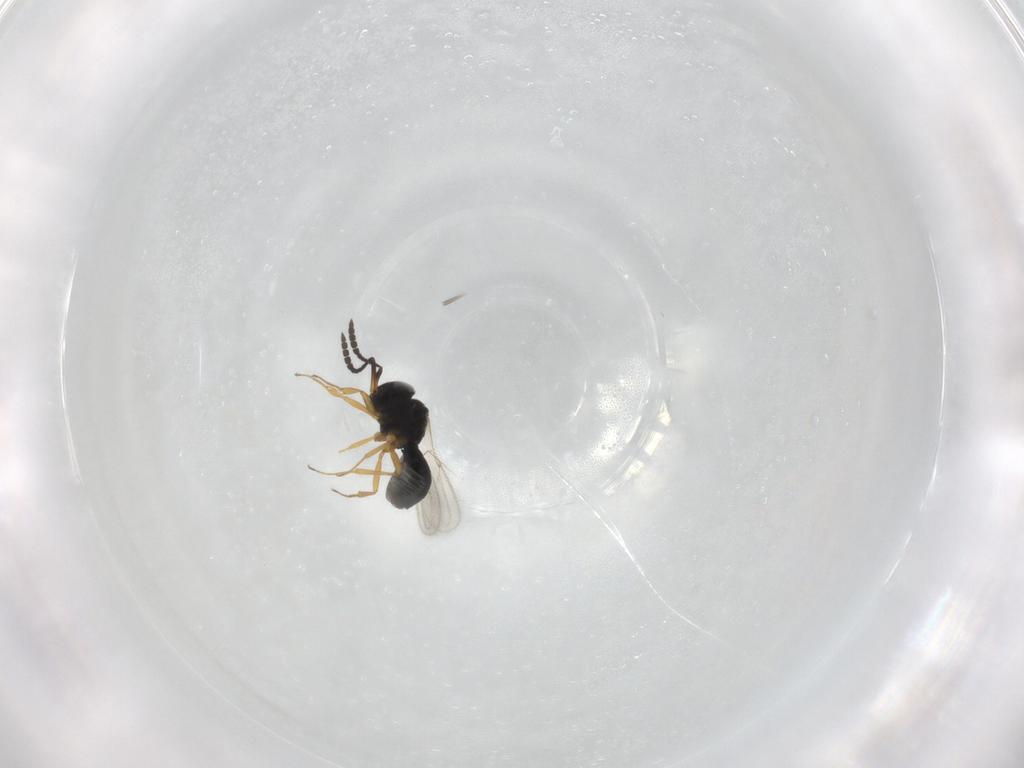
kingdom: Animalia
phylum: Arthropoda
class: Insecta
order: Hymenoptera
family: Scelionidae
